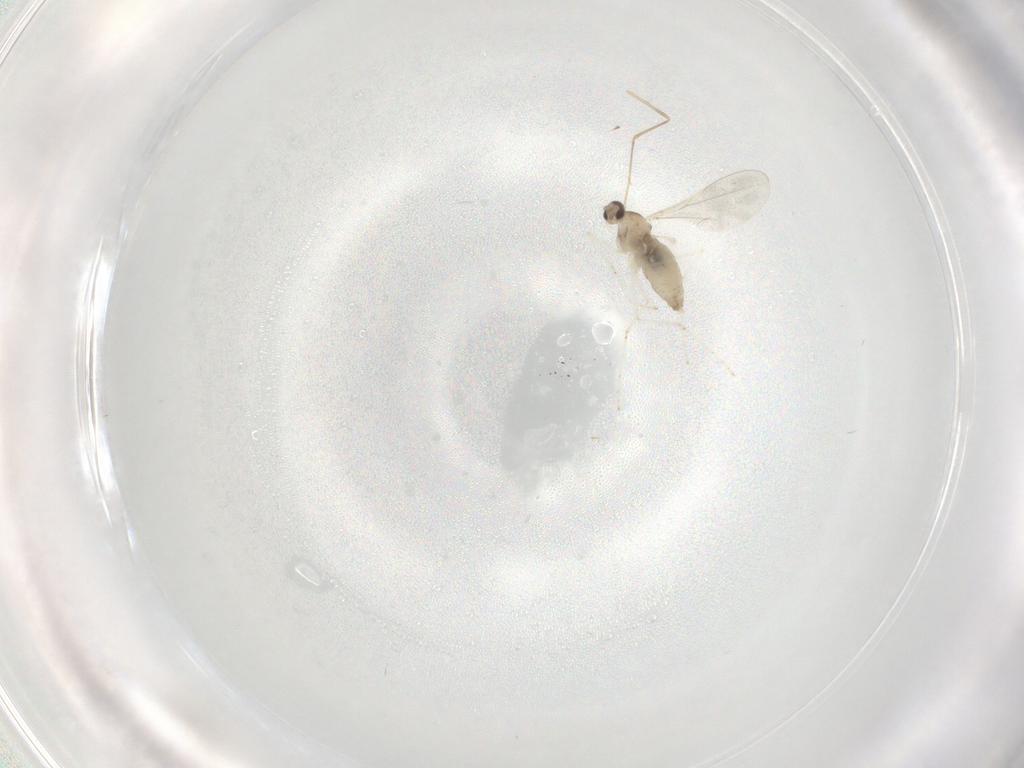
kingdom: Animalia
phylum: Arthropoda
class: Insecta
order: Diptera
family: Cecidomyiidae
